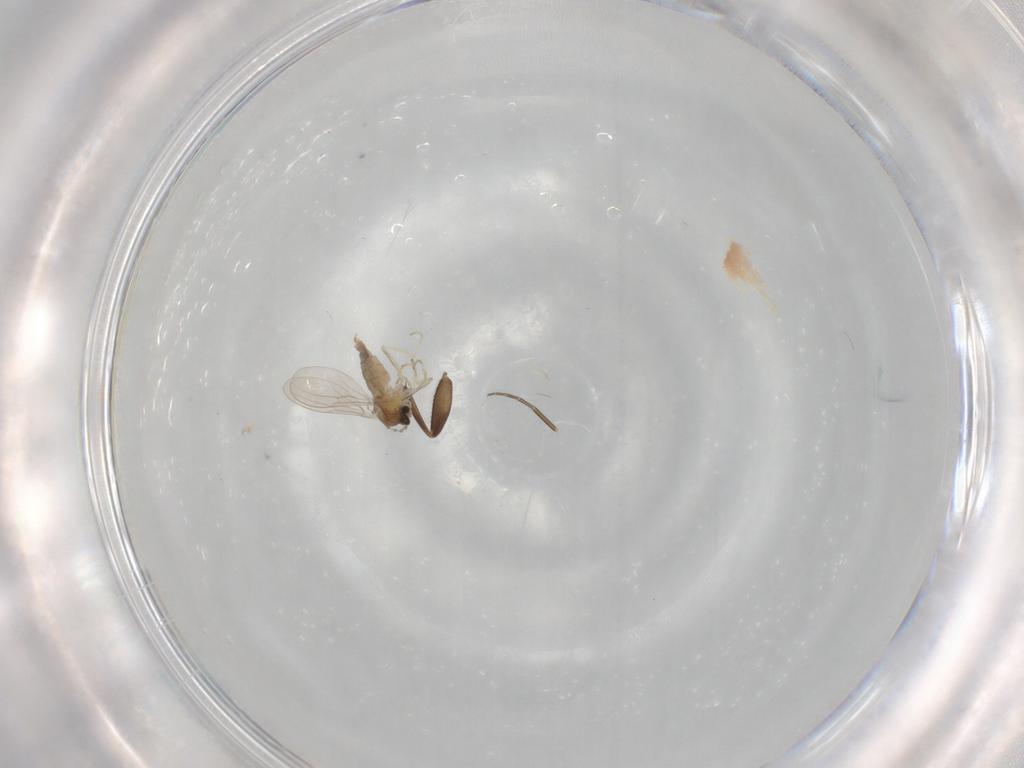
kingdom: Animalia
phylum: Arthropoda
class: Insecta
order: Diptera
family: Cecidomyiidae
